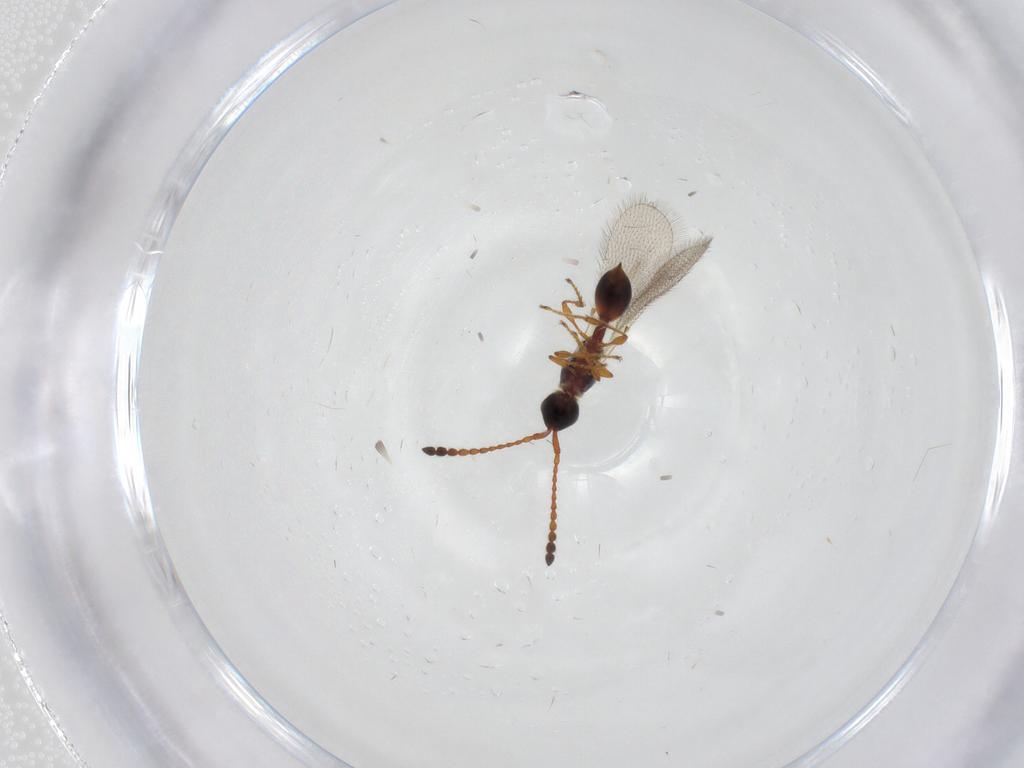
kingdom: Animalia
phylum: Arthropoda
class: Insecta
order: Hymenoptera
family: Diapriidae
